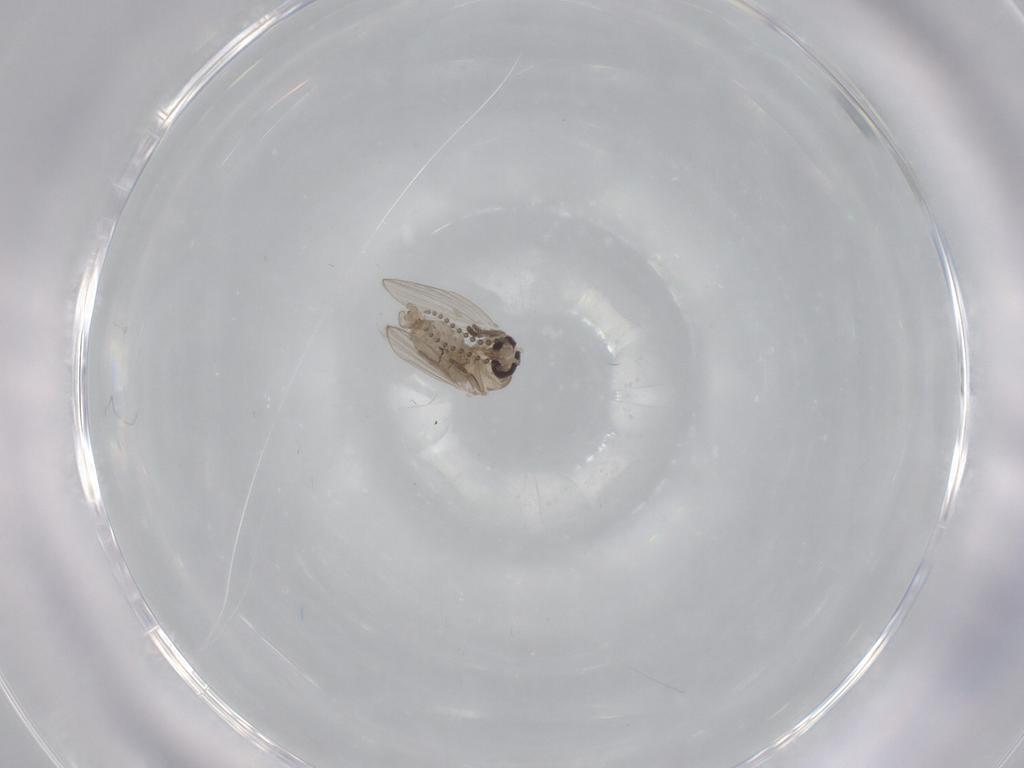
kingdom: Animalia
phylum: Arthropoda
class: Insecta
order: Diptera
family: Psychodidae
